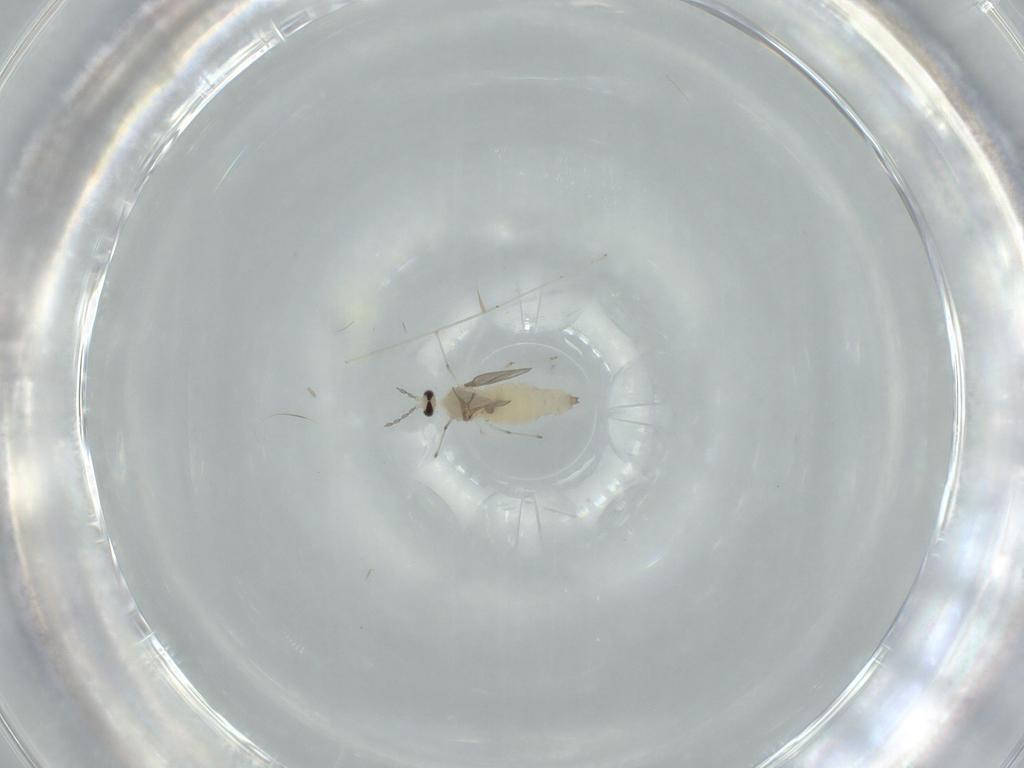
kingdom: Animalia
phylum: Arthropoda
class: Insecta
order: Diptera
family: Cecidomyiidae
